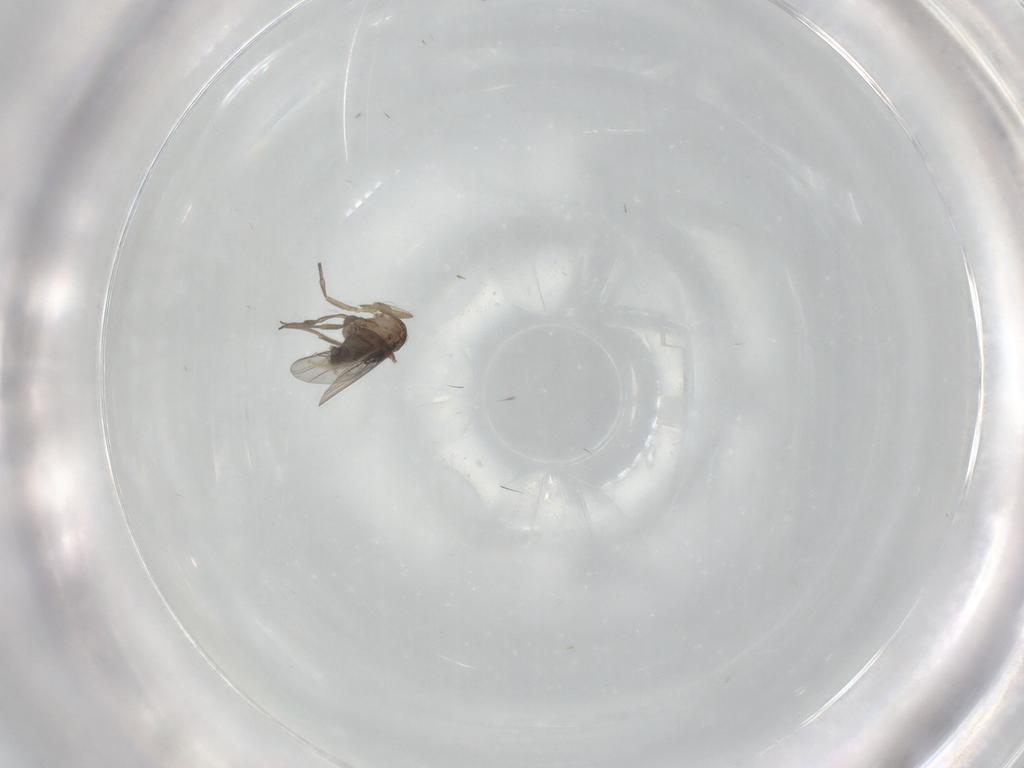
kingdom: Animalia
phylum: Arthropoda
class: Insecta
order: Diptera
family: Cecidomyiidae
